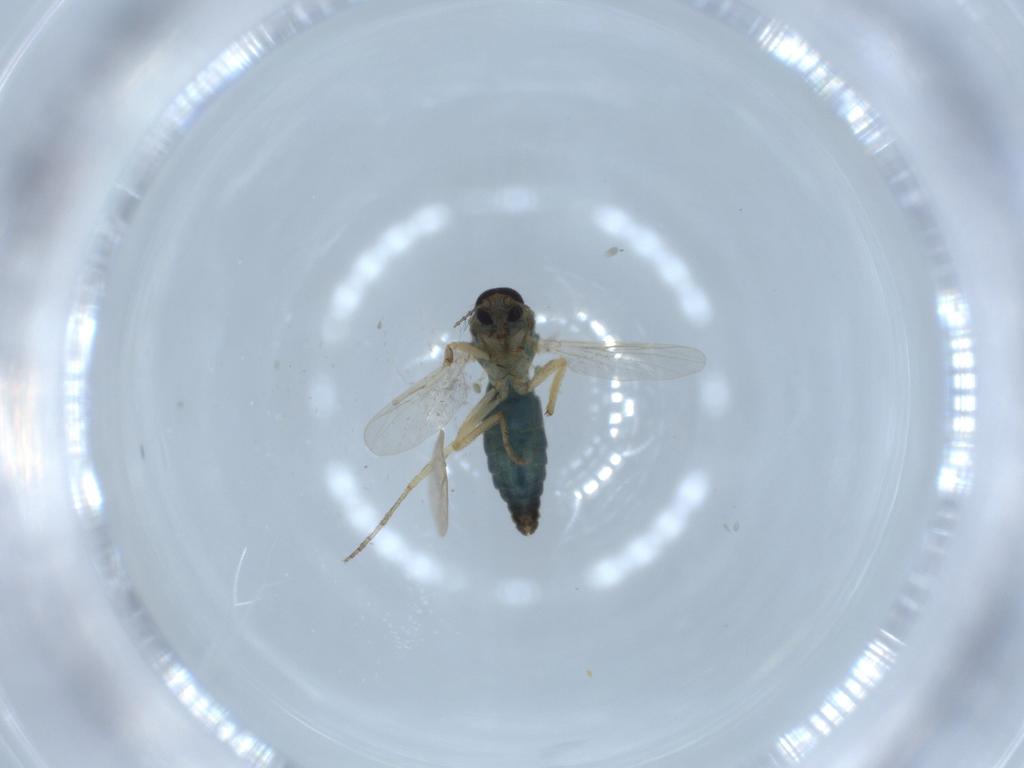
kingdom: Animalia
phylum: Arthropoda
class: Insecta
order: Diptera
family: Ceratopogonidae
